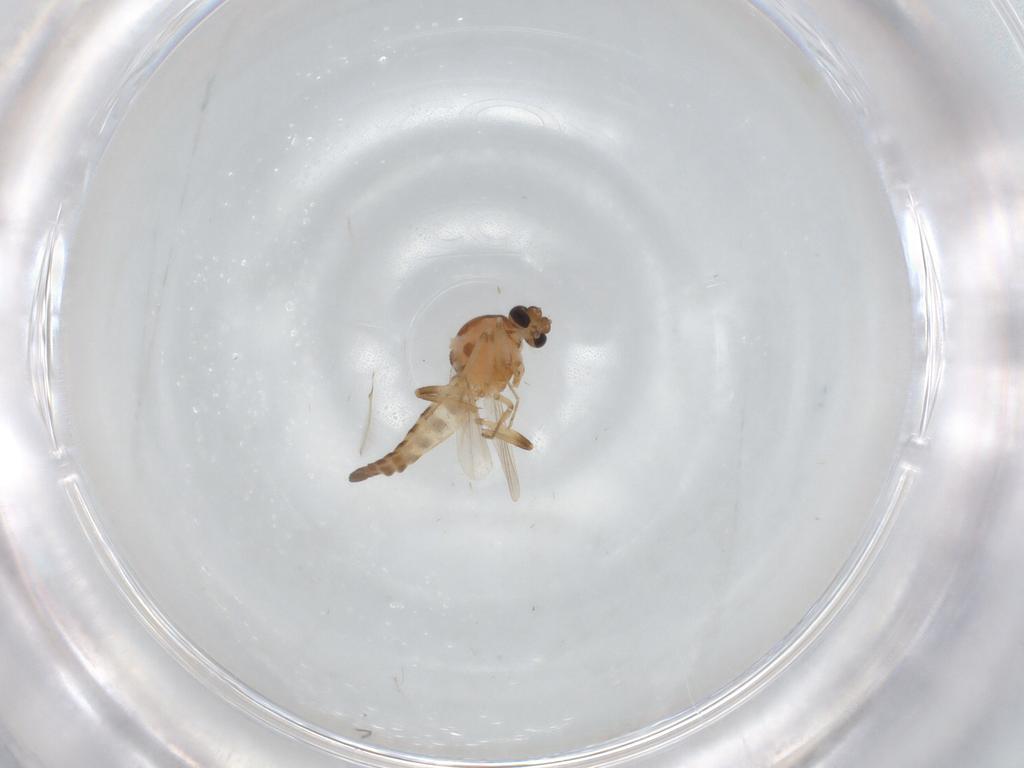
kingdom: Animalia
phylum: Arthropoda
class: Insecta
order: Diptera
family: Ceratopogonidae
